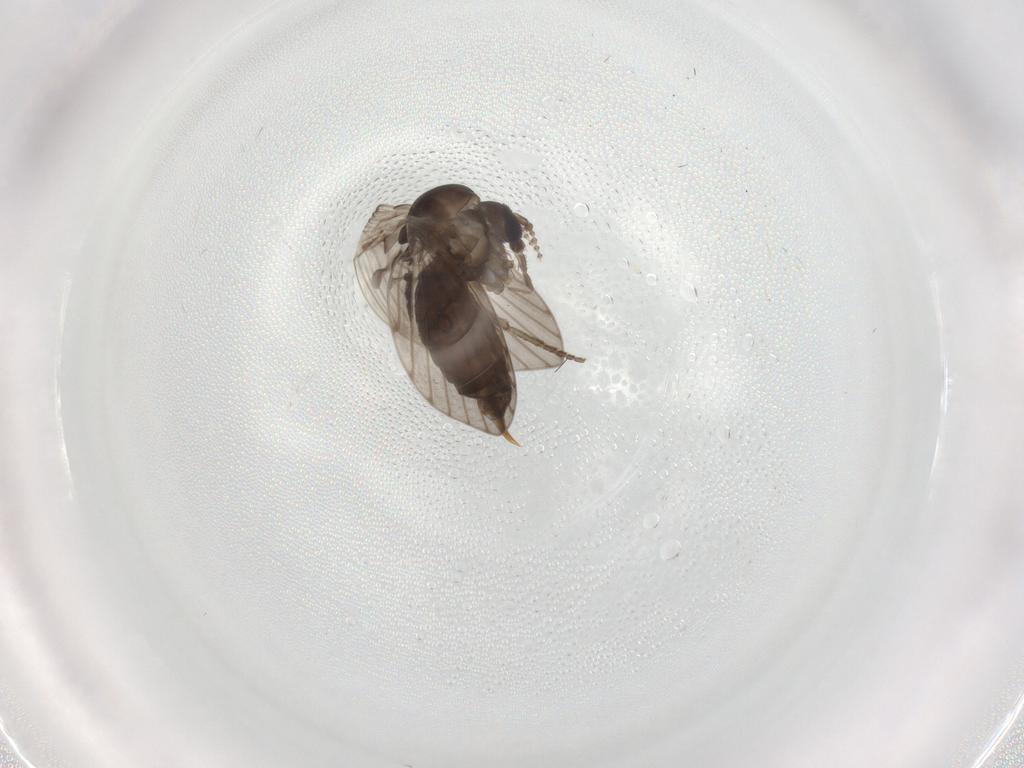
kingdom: Animalia
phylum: Arthropoda
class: Insecta
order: Diptera
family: Psychodidae
